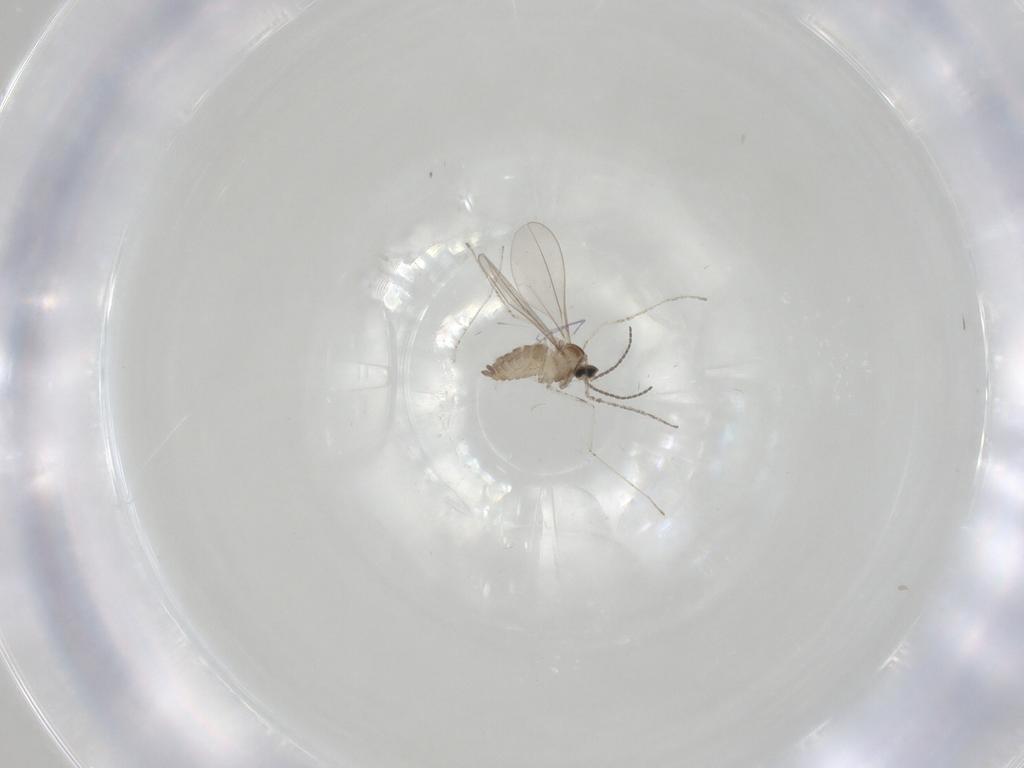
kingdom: Animalia
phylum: Arthropoda
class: Insecta
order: Diptera
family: Cecidomyiidae
